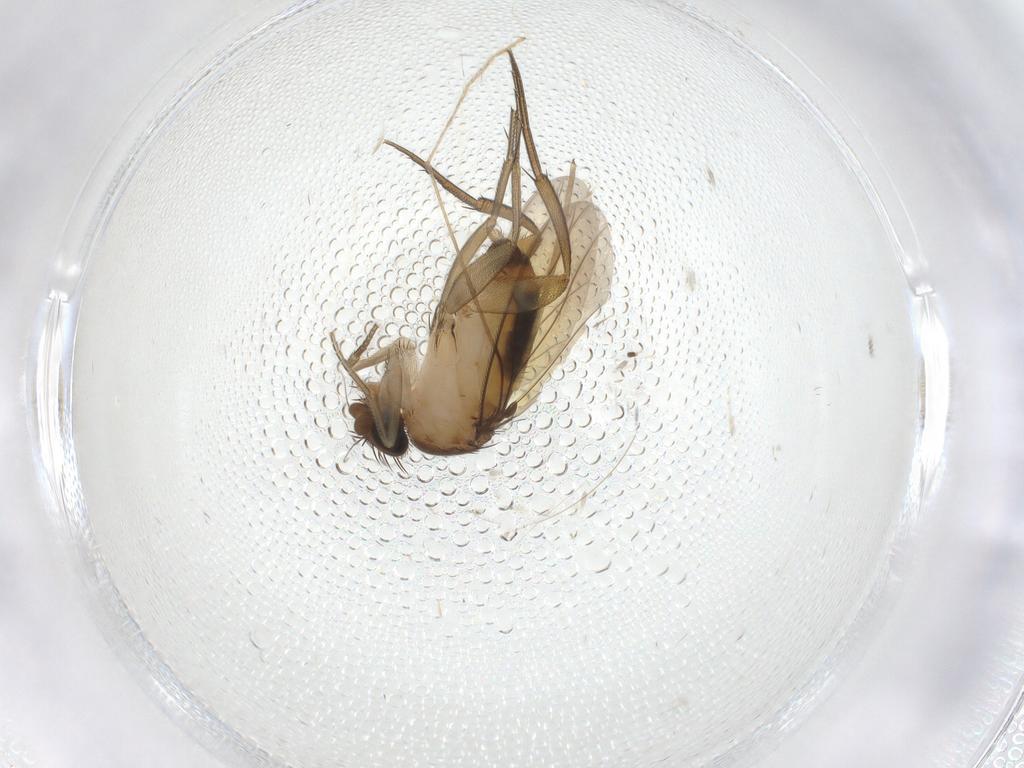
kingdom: Animalia
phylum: Arthropoda
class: Insecta
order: Diptera
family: Limoniidae
